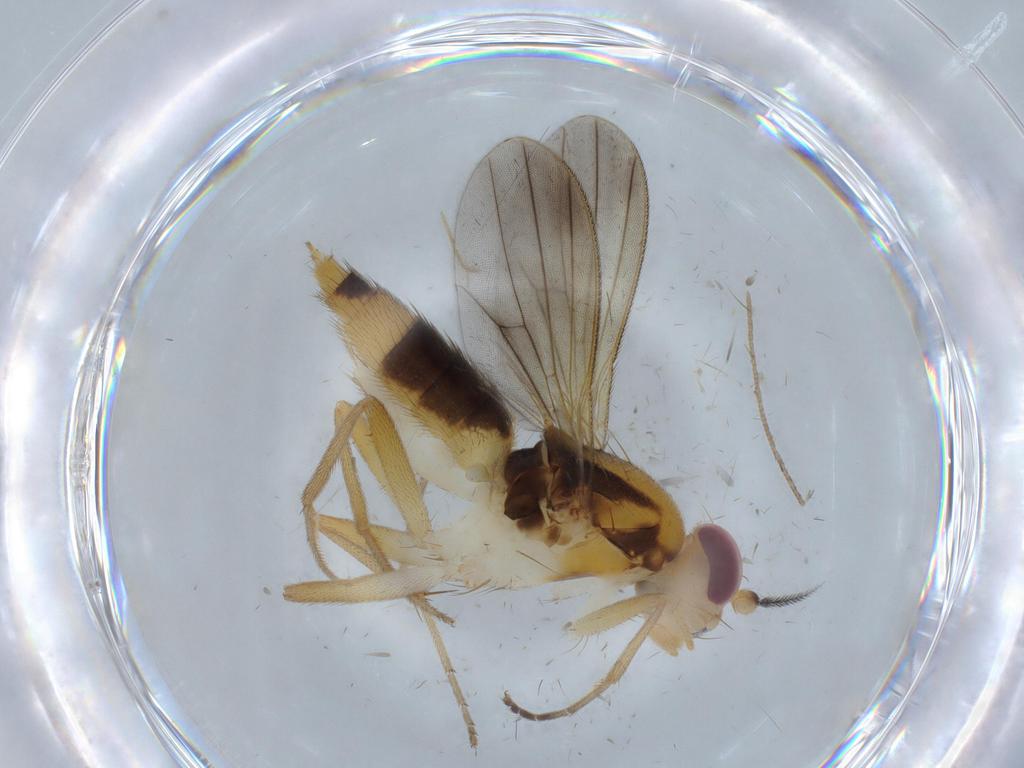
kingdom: Animalia
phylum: Arthropoda
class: Insecta
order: Diptera
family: Clusiidae
